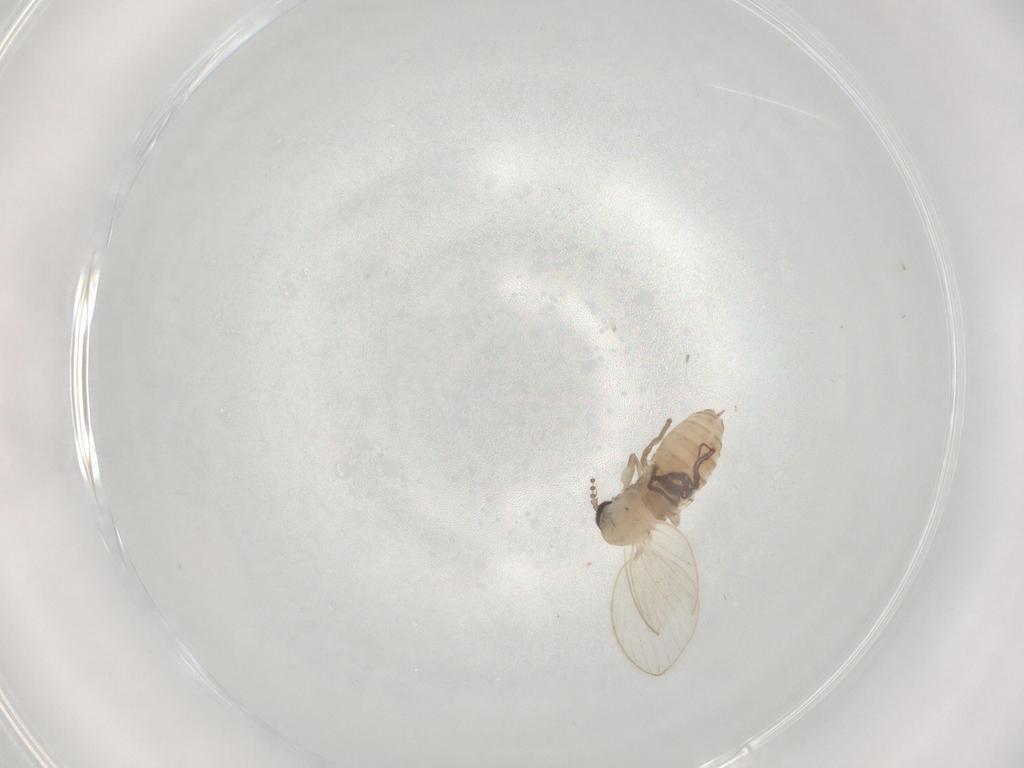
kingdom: Animalia
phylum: Arthropoda
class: Insecta
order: Diptera
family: Psychodidae
